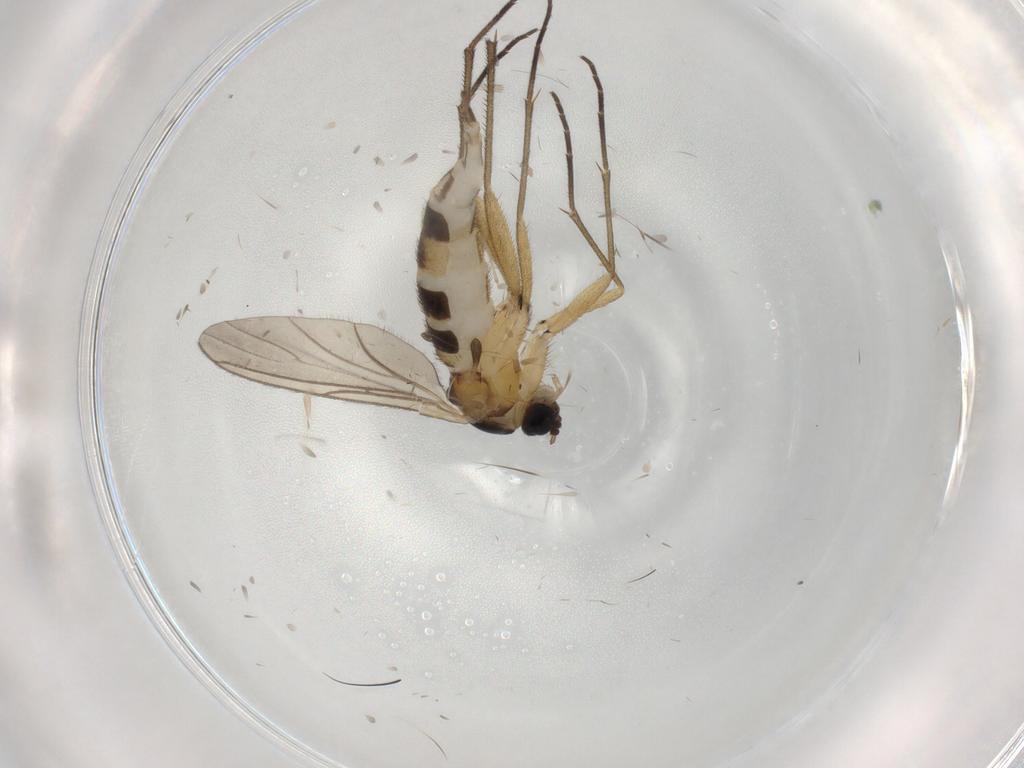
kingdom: Animalia
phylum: Arthropoda
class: Insecta
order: Diptera
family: Cecidomyiidae
